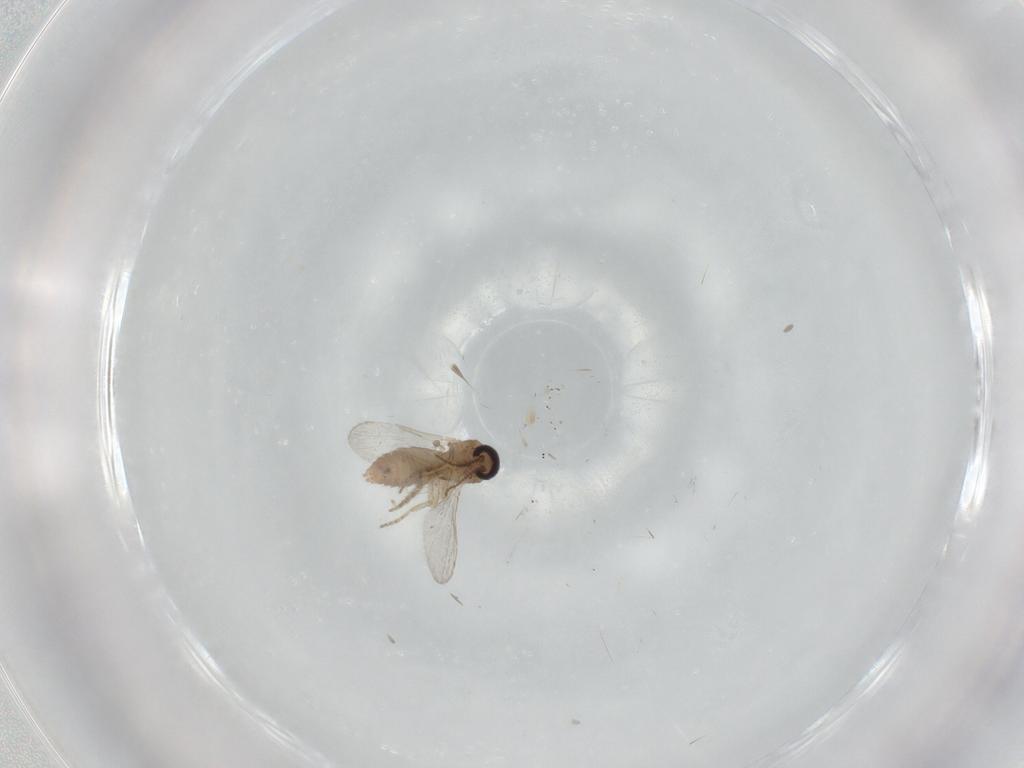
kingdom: Animalia
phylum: Arthropoda
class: Insecta
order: Diptera
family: Ceratopogonidae
